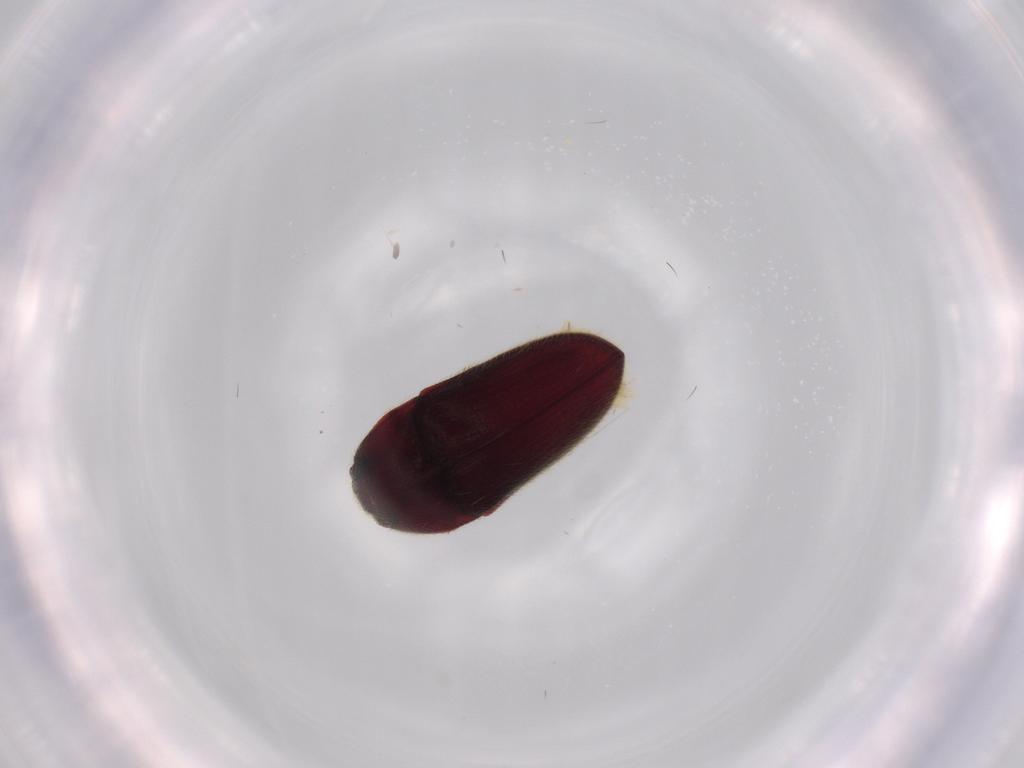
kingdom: Animalia
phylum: Arthropoda
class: Insecta
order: Coleoptera
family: Throscidae
